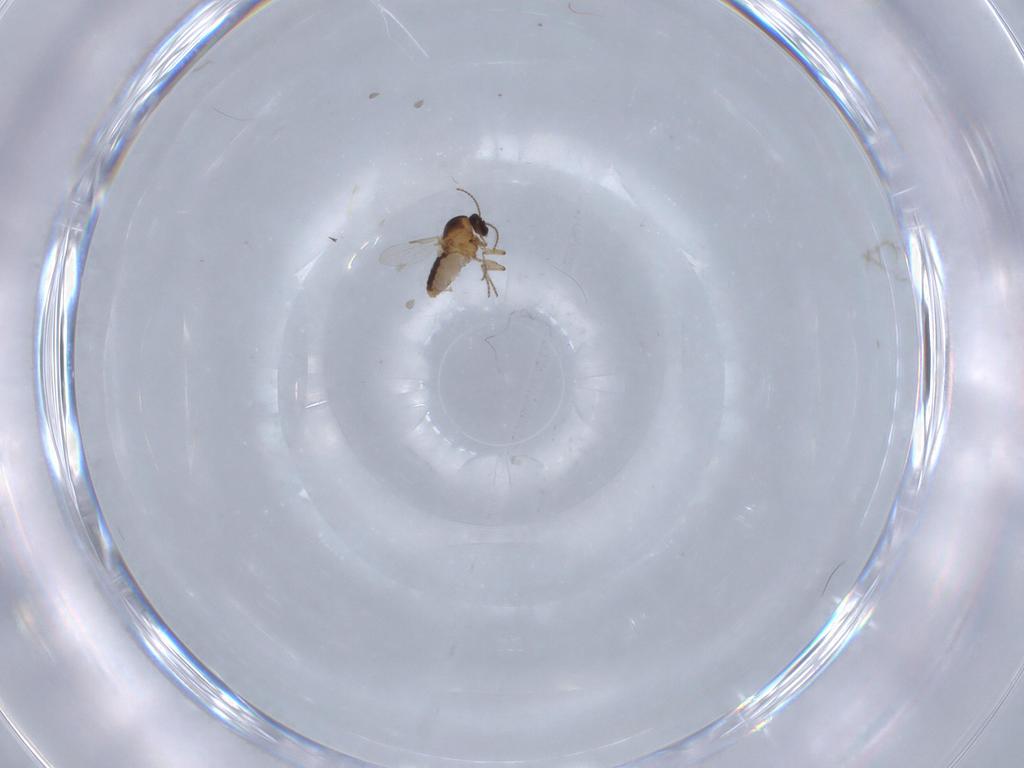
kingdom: Animalia
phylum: Arthropoda
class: Insecta
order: Diptera
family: Ceratopogonidae
